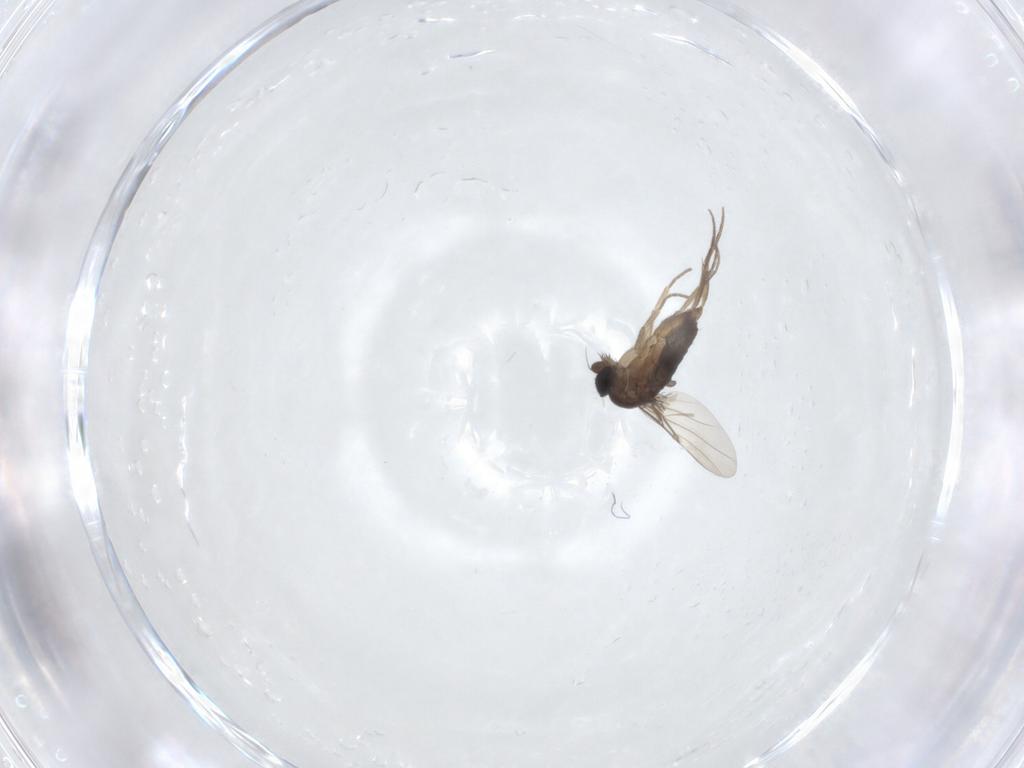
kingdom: Animalia
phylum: Arthropoda
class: Insecta
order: Diptera
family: Phoridae
